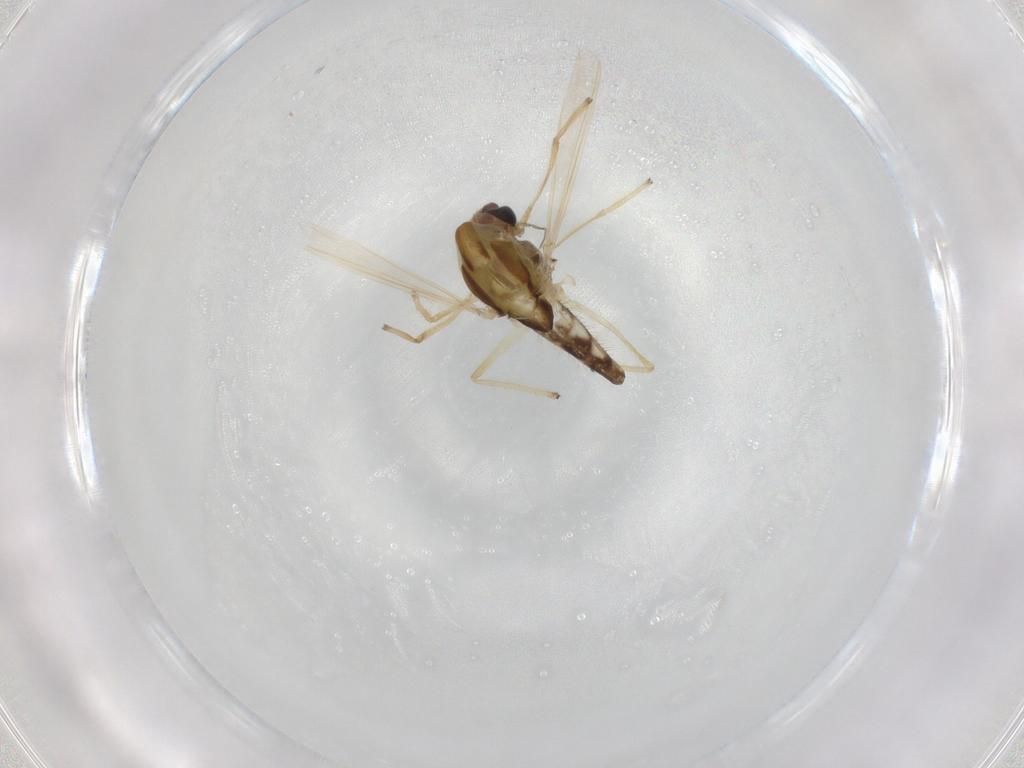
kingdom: Animalia
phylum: Arthropoda
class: Insecta
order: Diptera
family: Chironomidae
